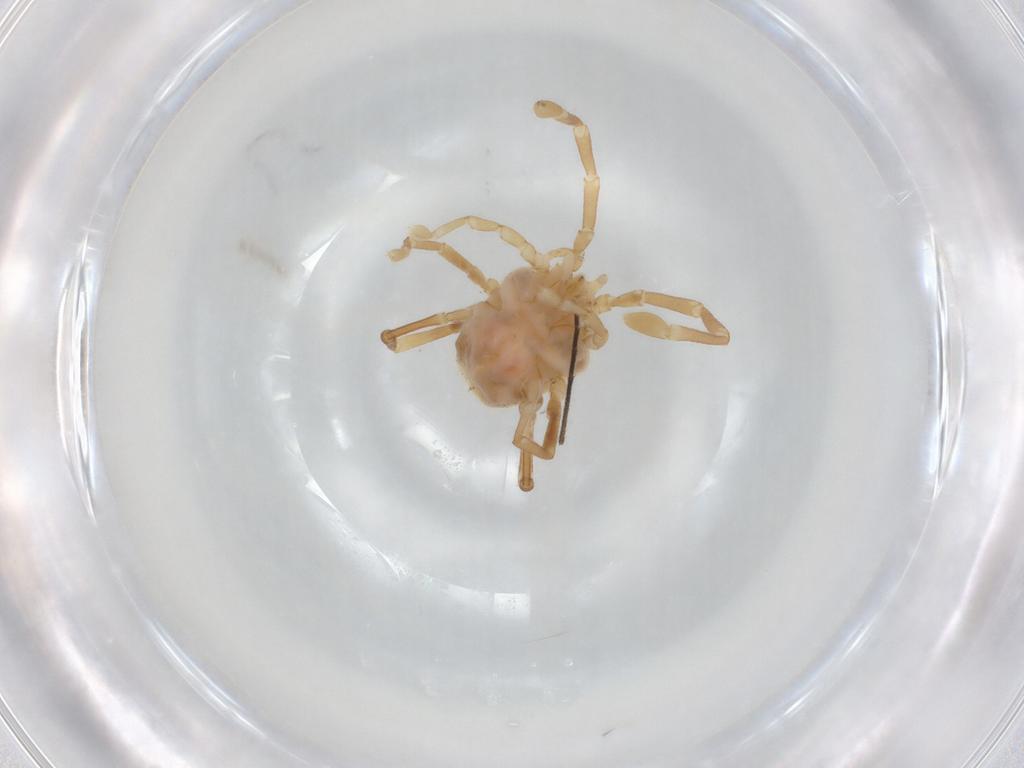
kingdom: Animalia
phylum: Arthropoda
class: Arachnida
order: Trombidiformes
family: Erythraeidae
